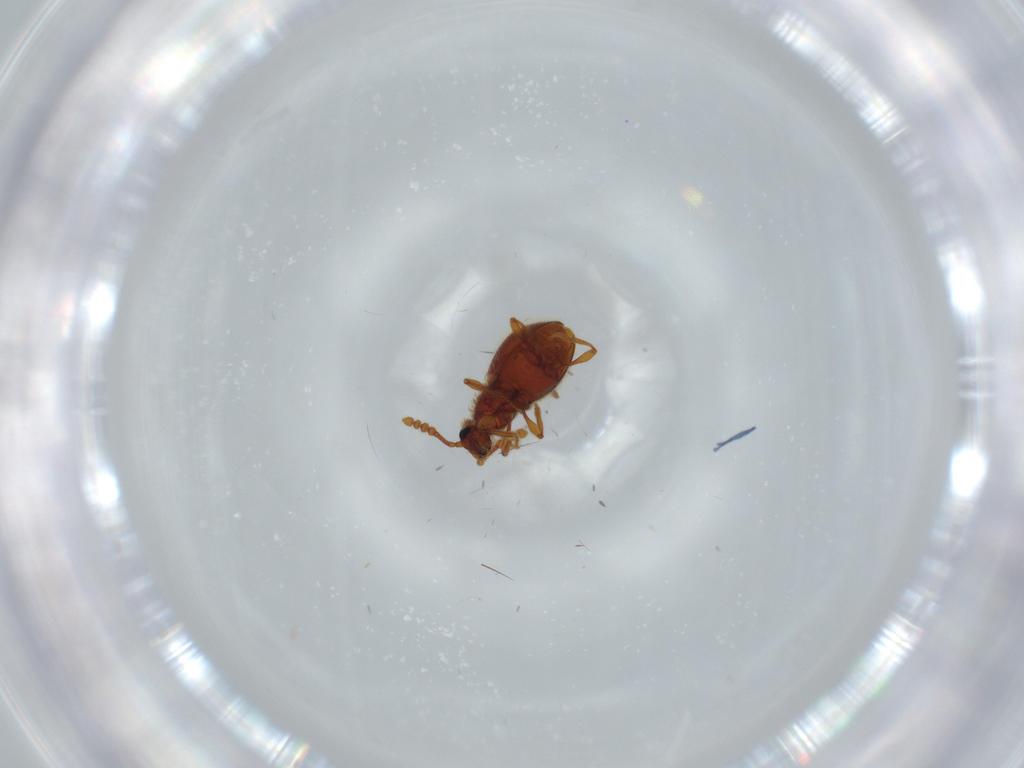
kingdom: Animalia
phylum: Arthropoda
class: Insecta
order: Coleoptera
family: Staphylinidae
